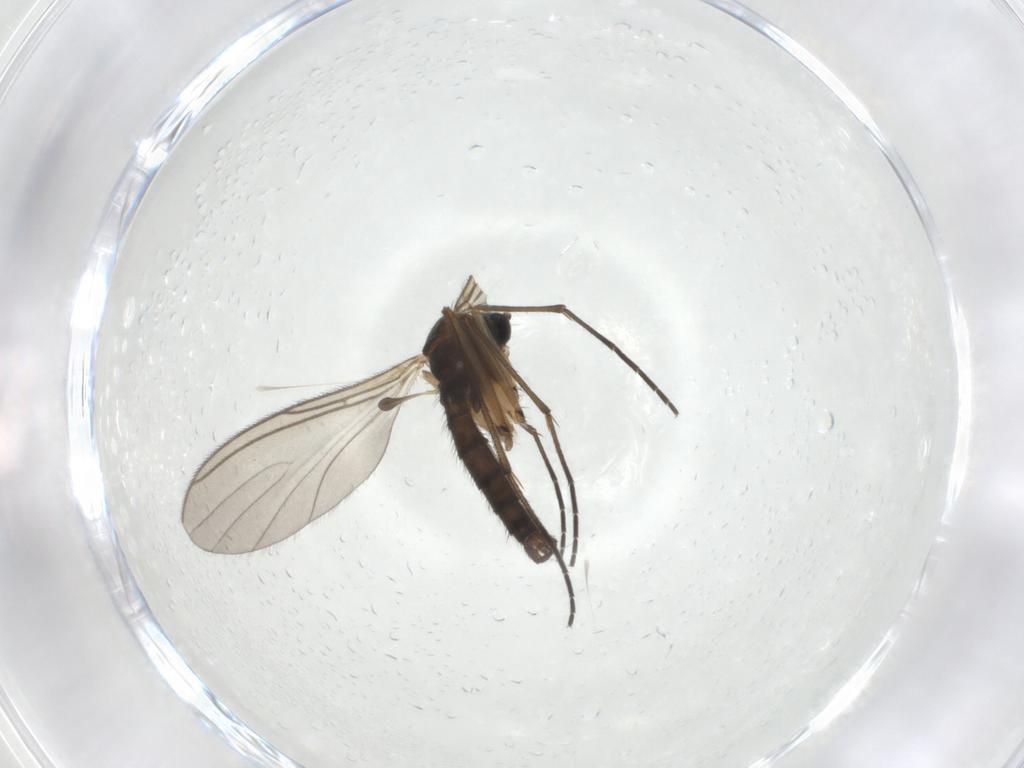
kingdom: Animalia
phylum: Arthropoda
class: Insecta
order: Diptera
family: Sciaridae
